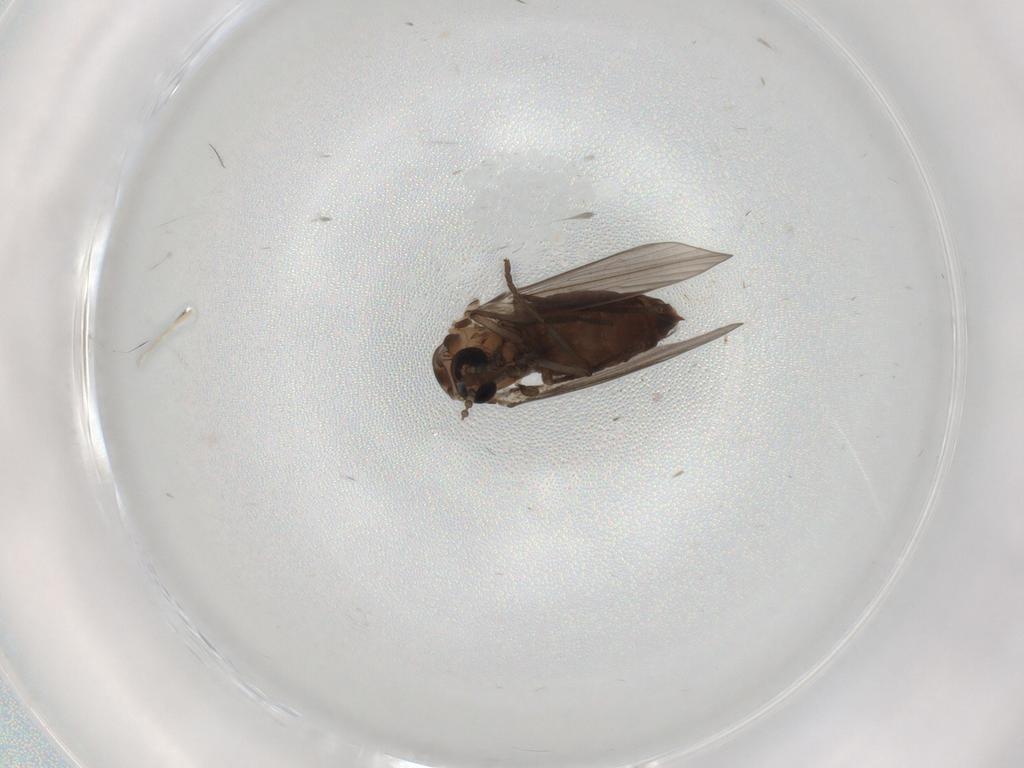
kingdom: Animalia
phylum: Arthropoda
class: Insecta
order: Diptera
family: Psychodidae
